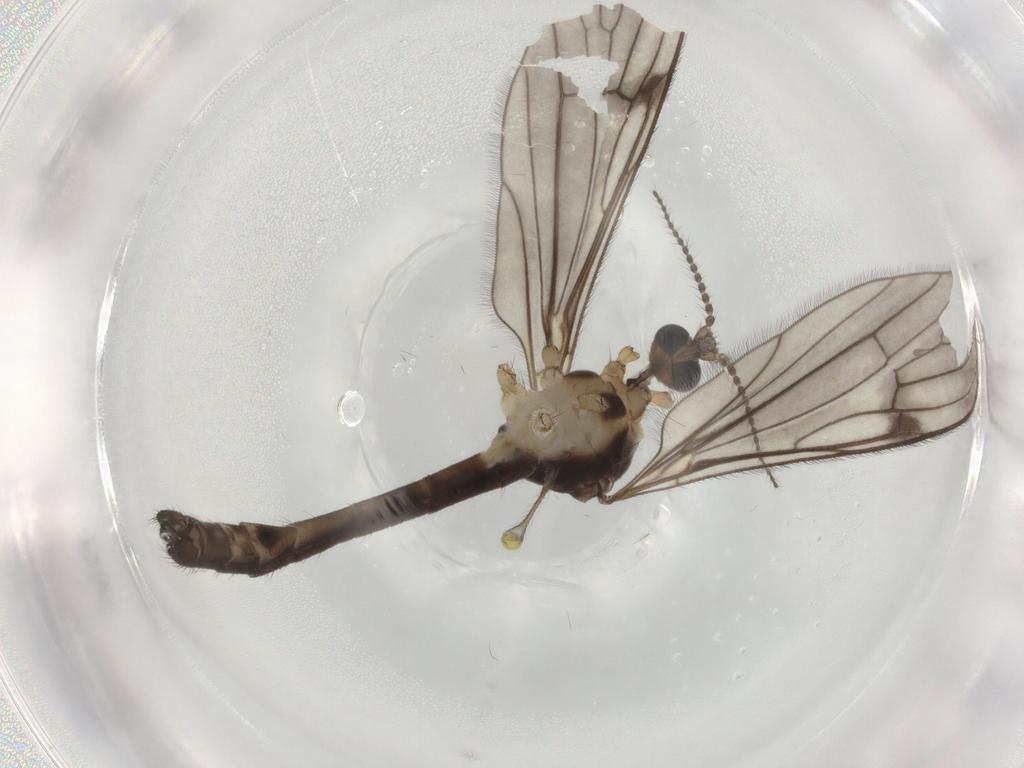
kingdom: Animalia
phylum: Arthropoda
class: Insecta
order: Diptera
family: Limoniidae
